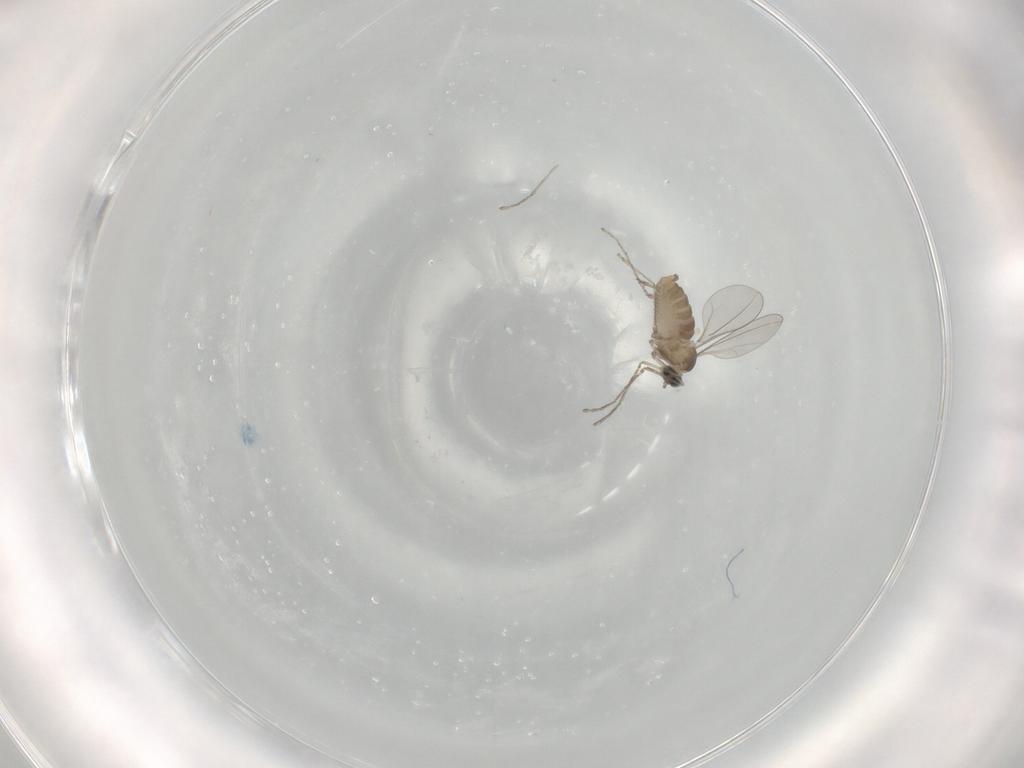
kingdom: Animalia
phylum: Arthropoda
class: Insecta
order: Diptera
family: Cecidomyiidae
